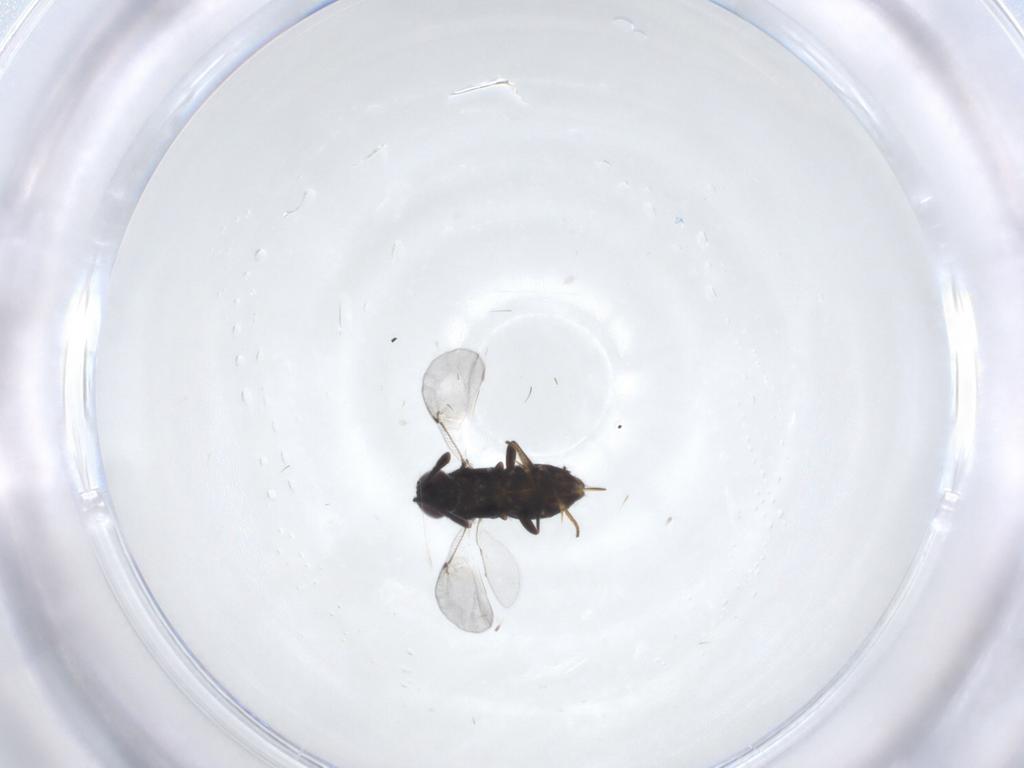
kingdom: Animalia
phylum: Arthropoda
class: Insecta
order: Hymenoptera
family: Encyrtidae
